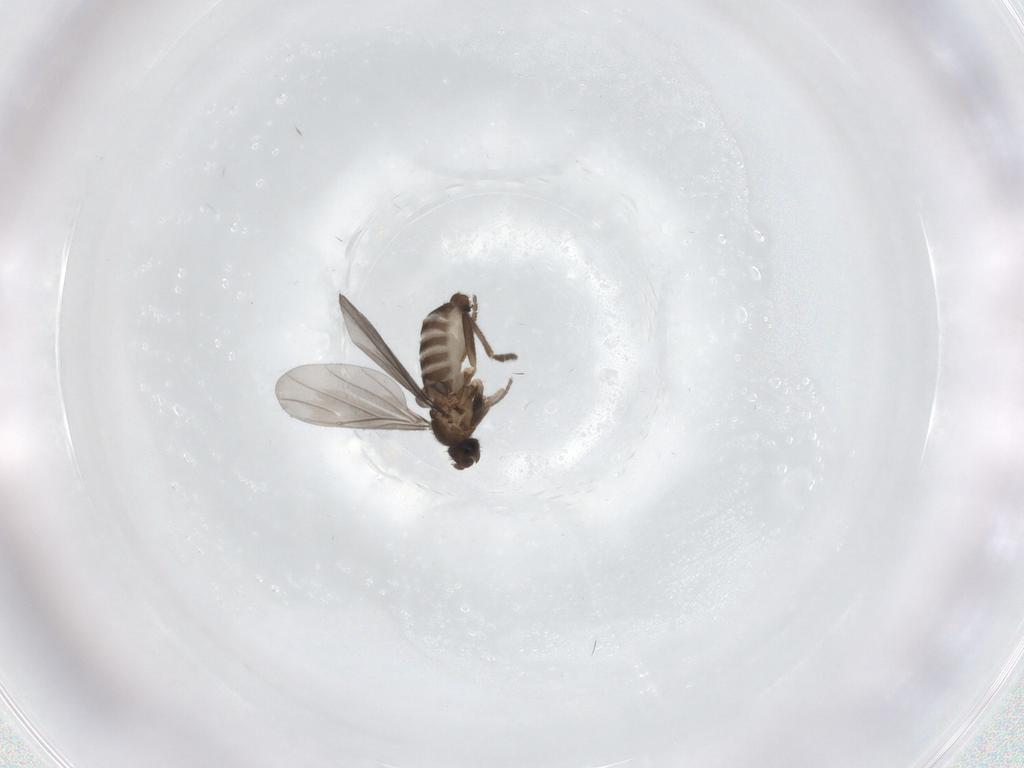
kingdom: Animalia
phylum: Arthropoda
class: Insecta
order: Diptera
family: Phoridae
